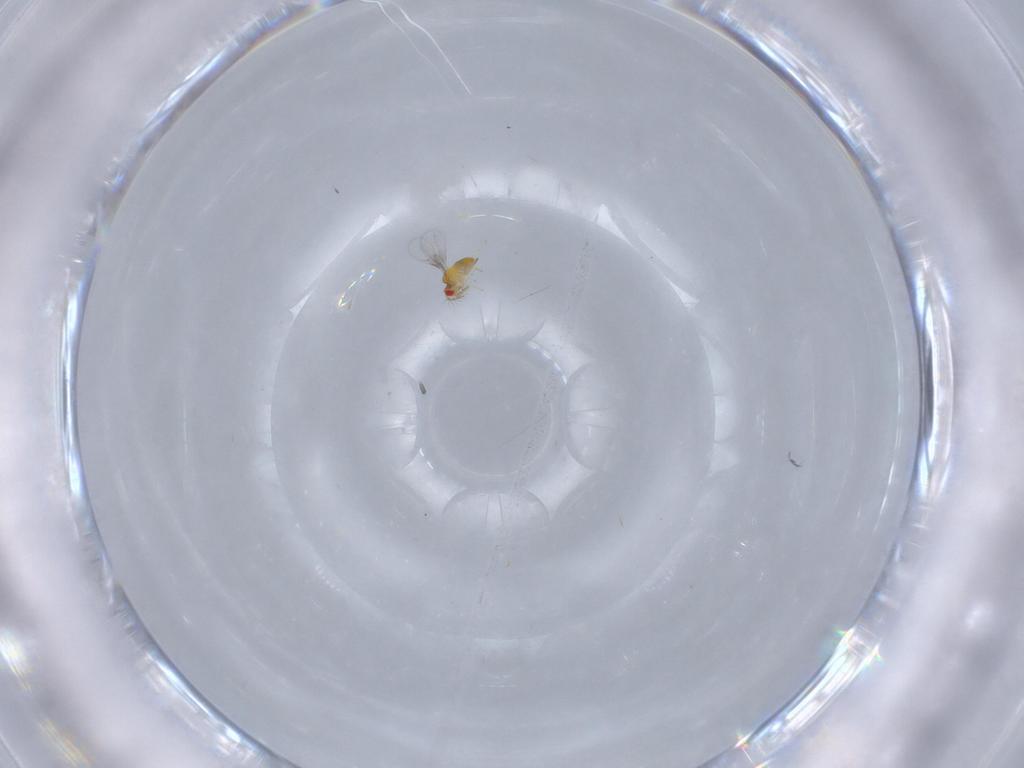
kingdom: Animalia
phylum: Arthropoda
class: Insecta
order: Hymenoptera
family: Trichogrammatidae
